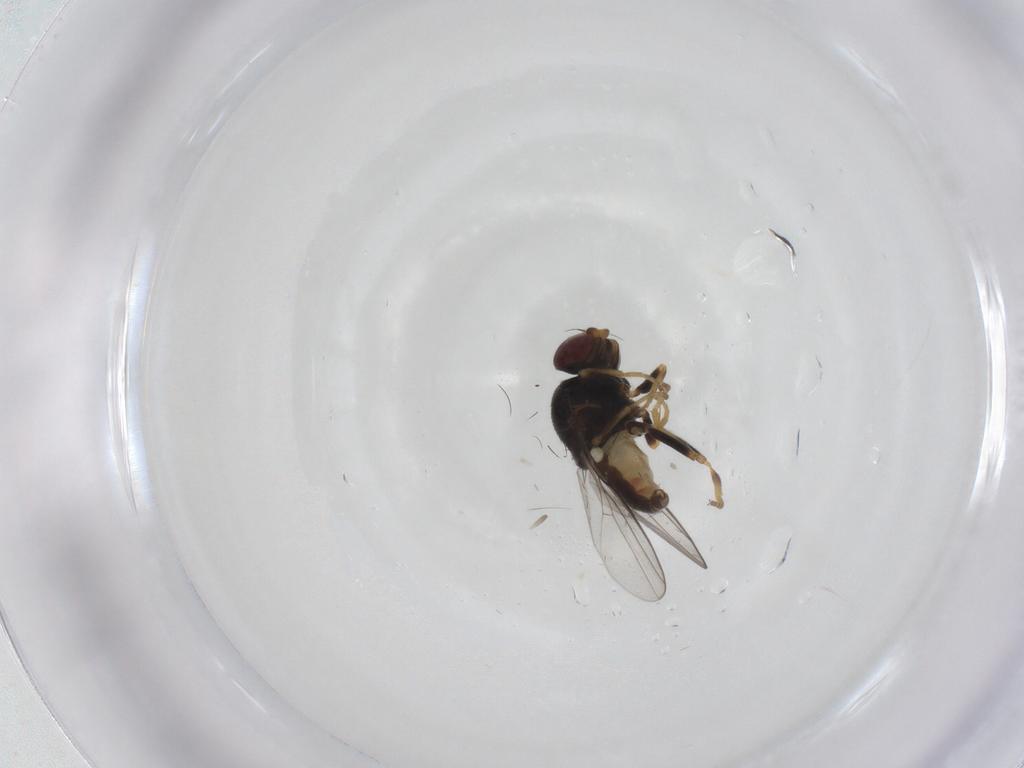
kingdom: Animalia
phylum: Arthropoda
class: Insecta
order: Diptera
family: Chloropidae
